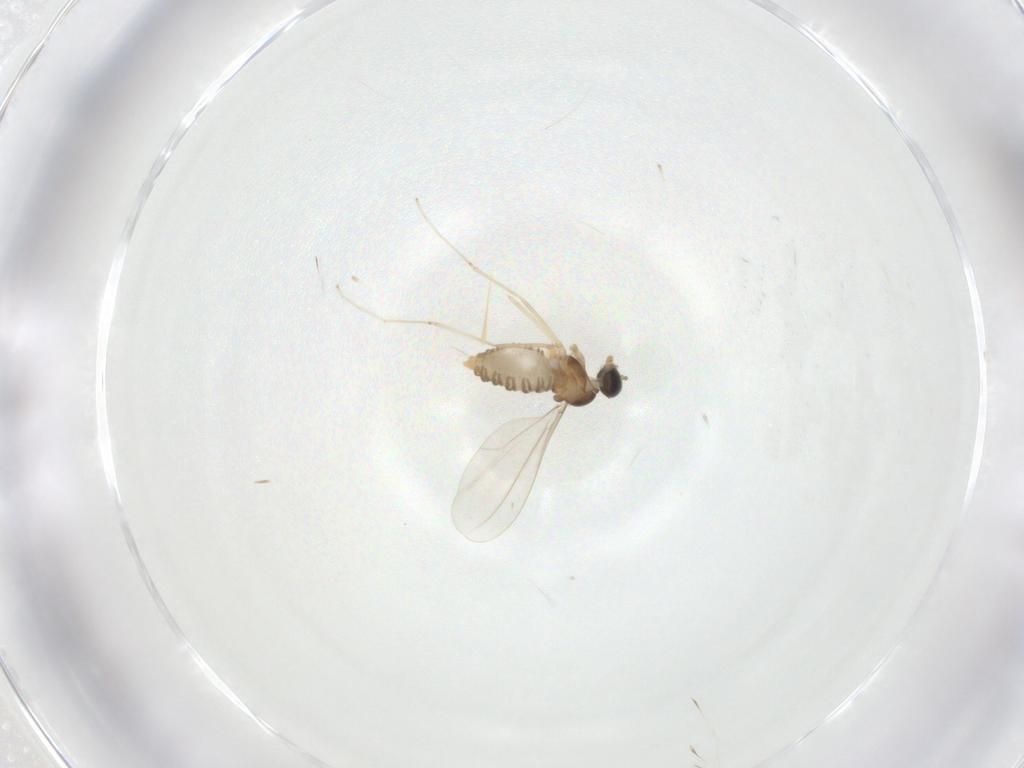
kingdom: Animalia
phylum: Arthropoda
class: Insecta
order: Diptera
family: Cecidomyiidae
